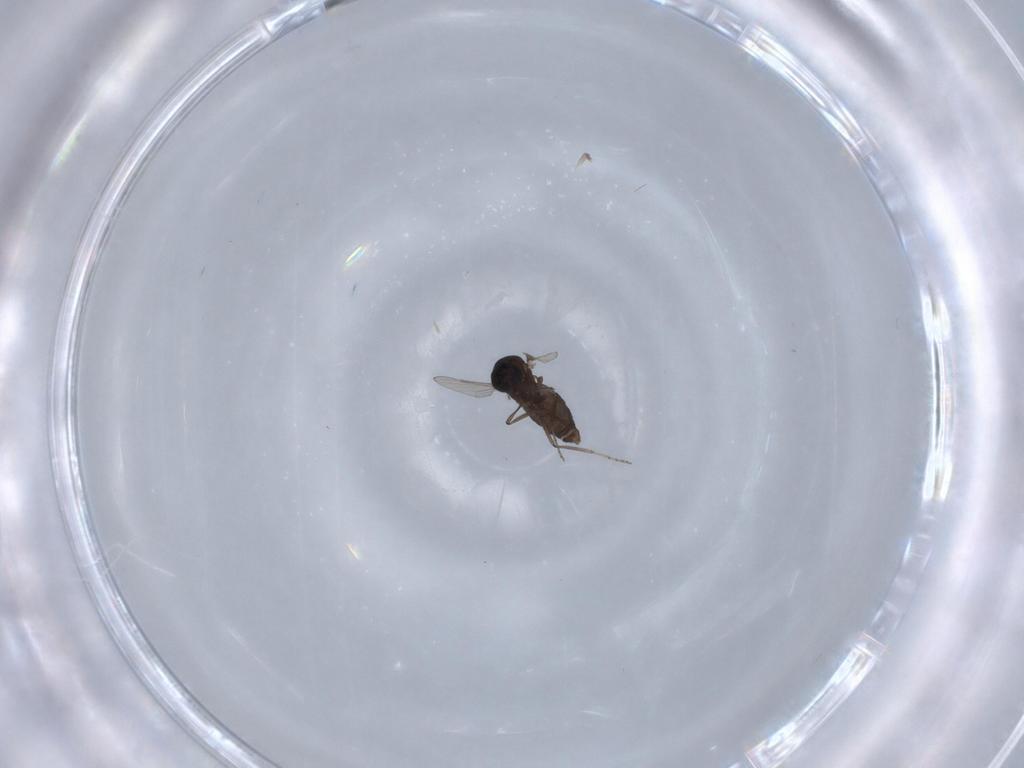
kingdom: Animalia
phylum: Arthropoda
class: Insecta
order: Diptera
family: Ceratopogonidae
